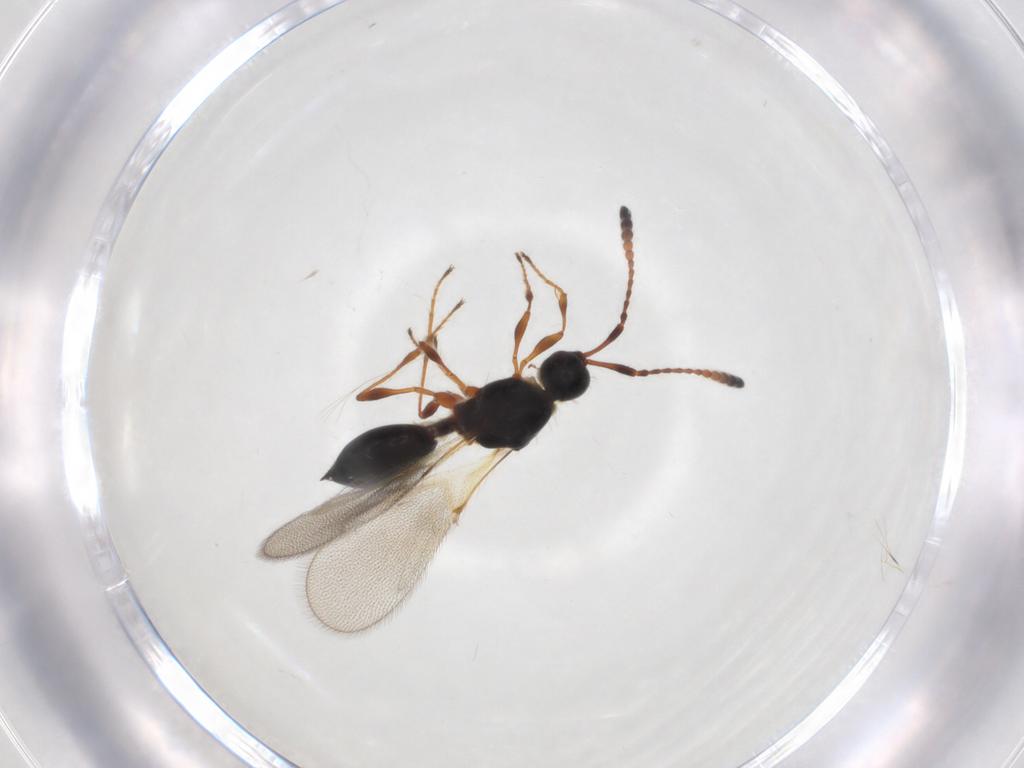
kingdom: Animalia
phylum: Arthropoda
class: Insecta
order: Hymenoptera
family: Diapriidae
